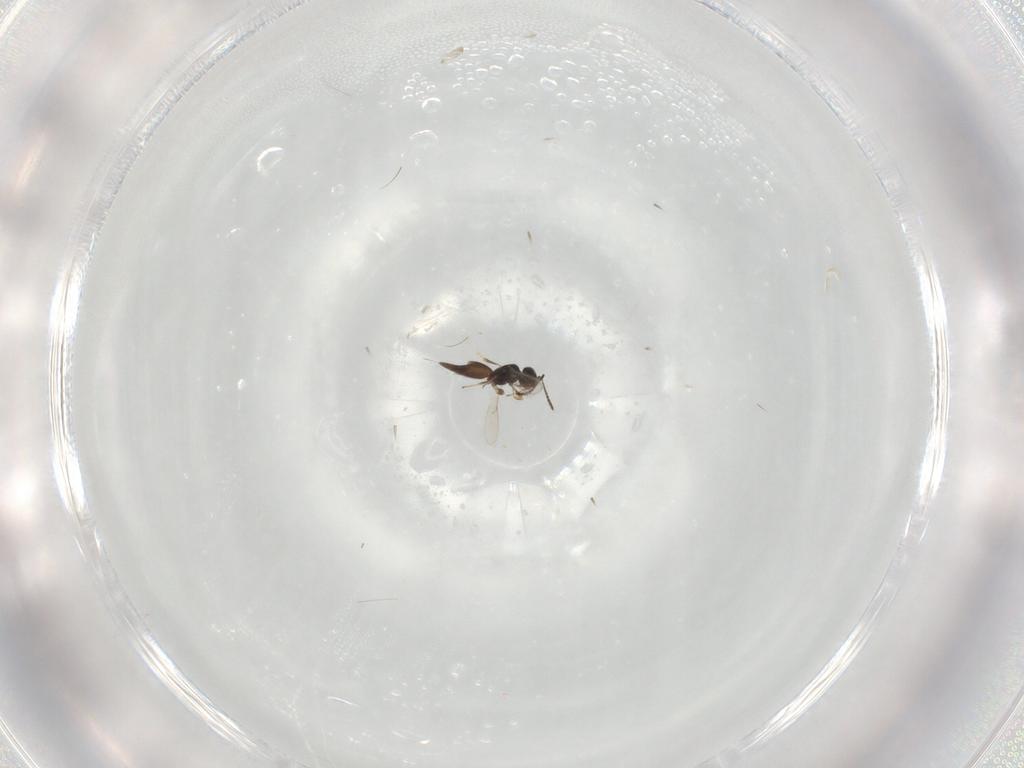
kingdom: Animalia
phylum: Arthropoda
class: Insecta
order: Hymenoptera
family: Scelionidae
